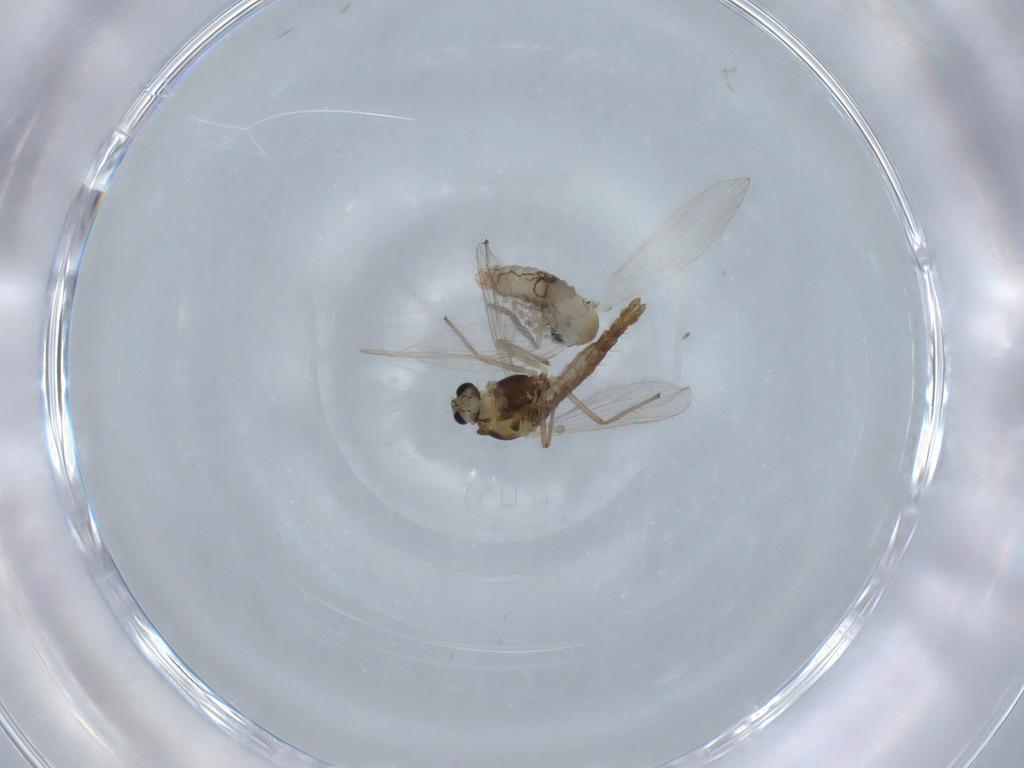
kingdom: Animalia
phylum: Arthropoda
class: Insecta
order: Diptera
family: Psychodidae
